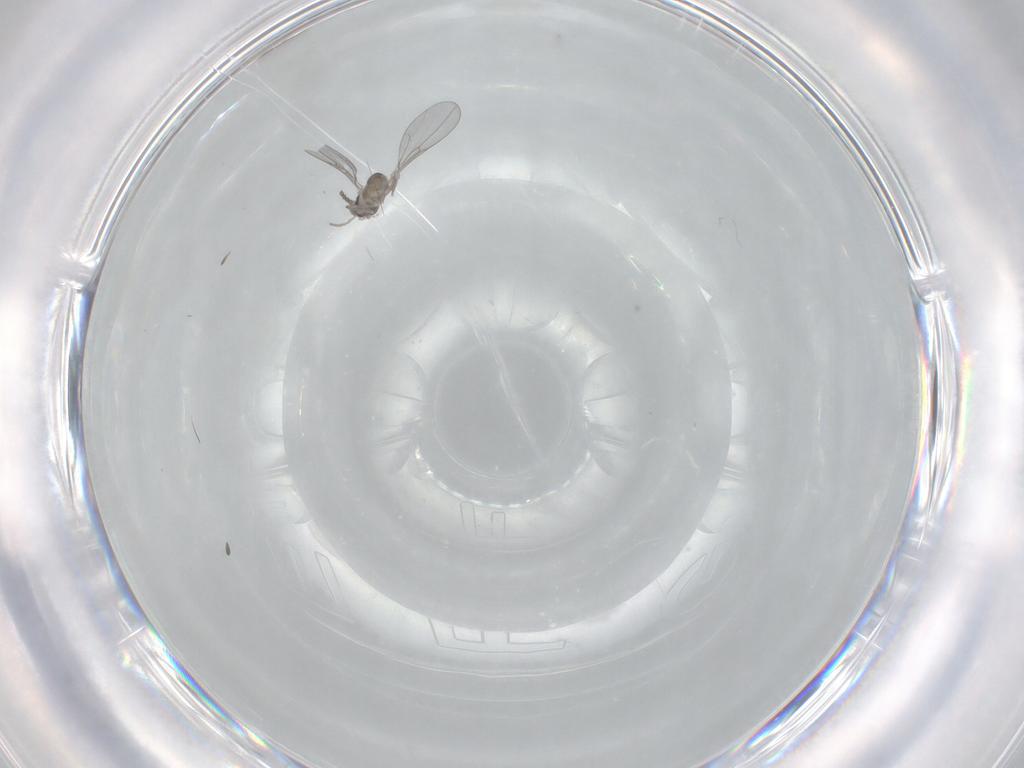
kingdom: Animalia
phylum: Arthropoda
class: Insecta
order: Diptera
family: Cecidomyiidae
